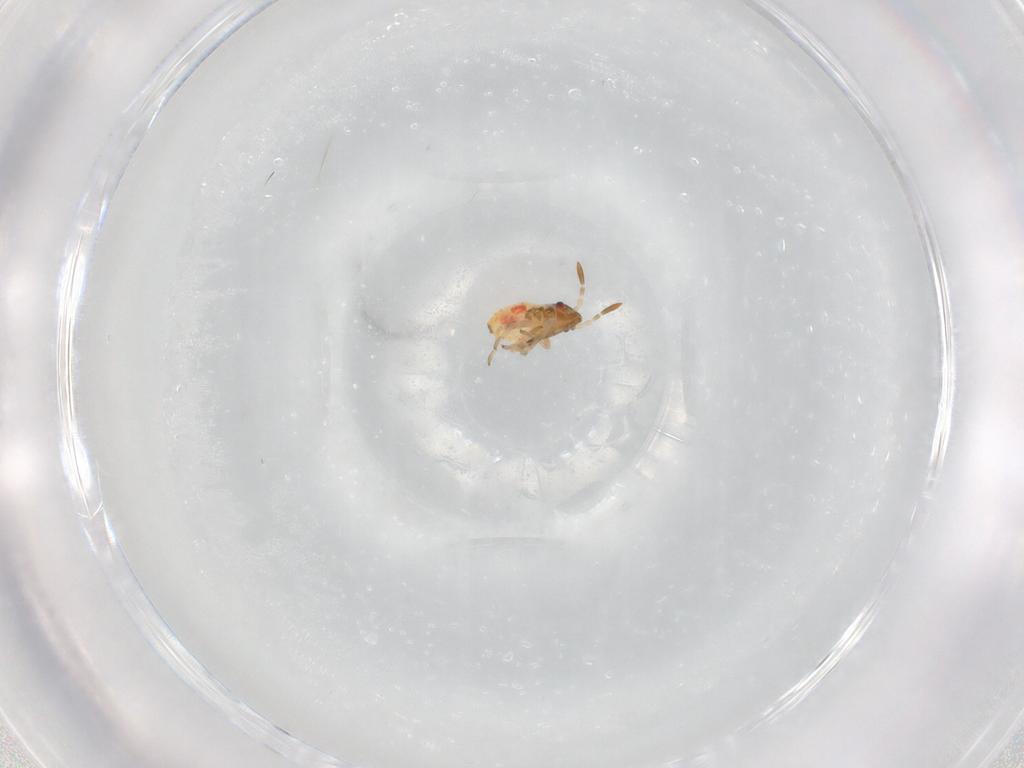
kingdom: Animalia
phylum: Arthropoda
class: Insecta
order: Hemiptera
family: Lygaeidae
